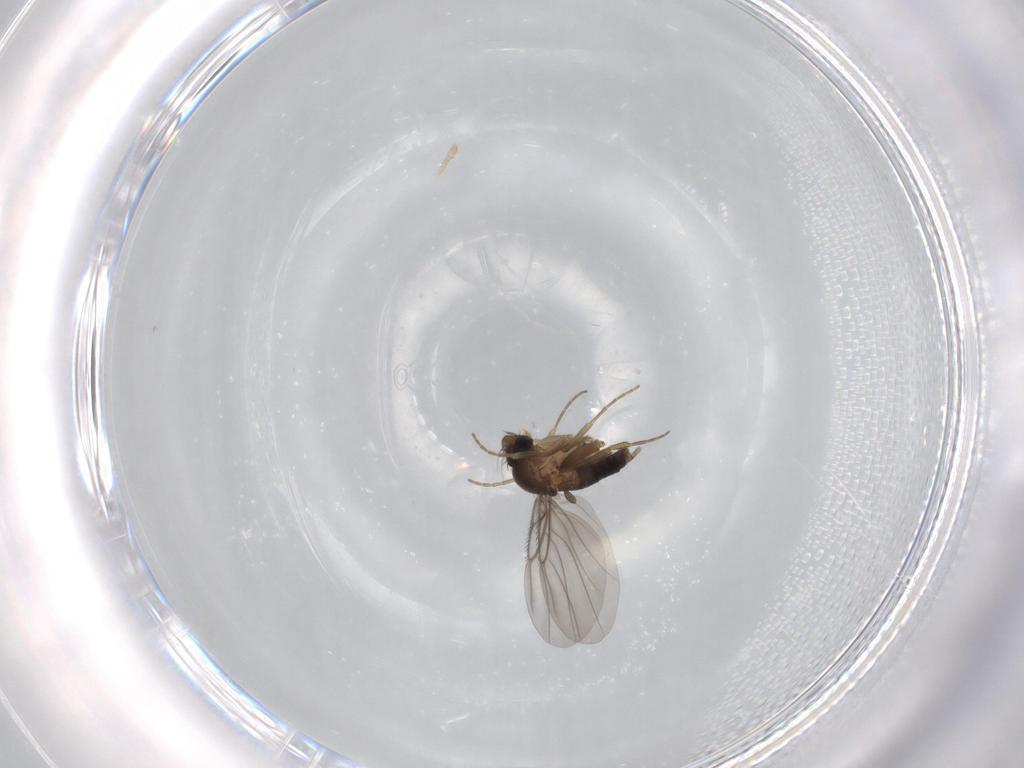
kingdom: Animalia
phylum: Arthropoda
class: Insecta
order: Diptera
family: Phoridae
